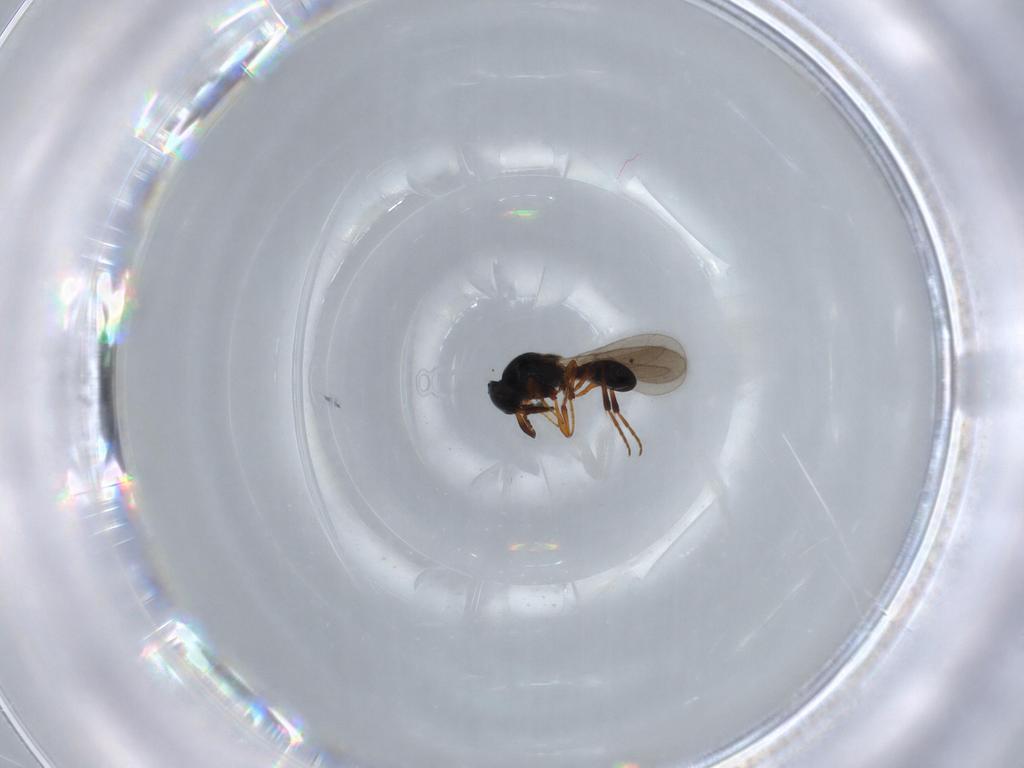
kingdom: Animalia
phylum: Arthropoda
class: Insecta
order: Hymenoptera
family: Platygastridae
